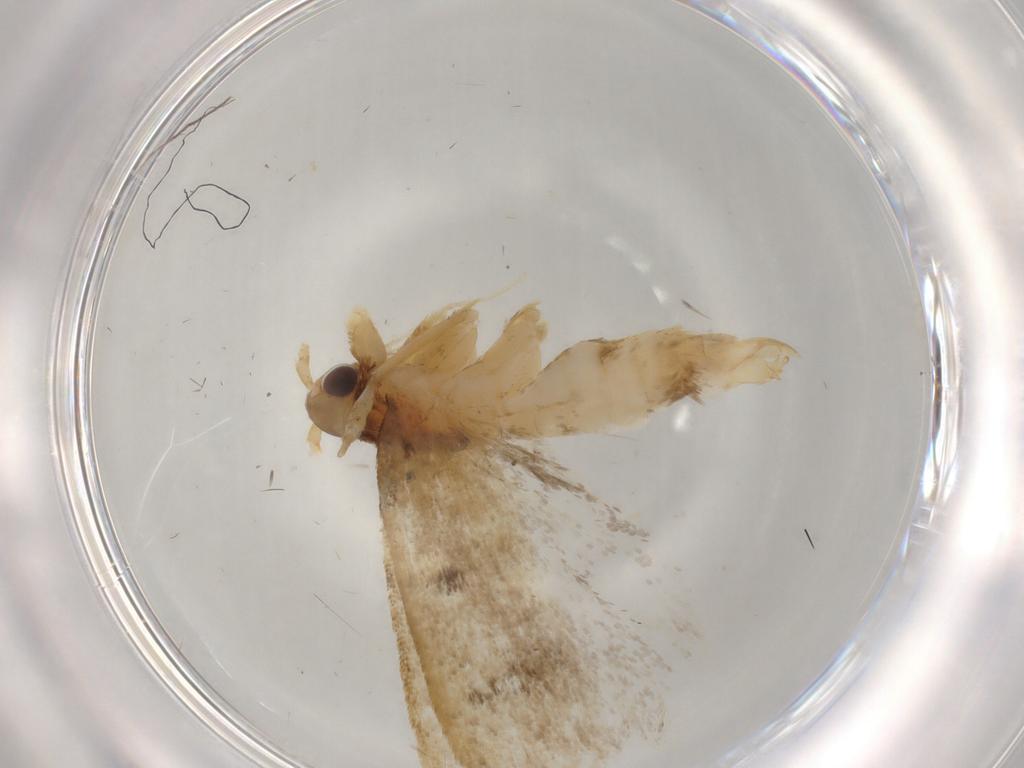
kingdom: Animalia
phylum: Arthropoda
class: Insecta
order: Lepidoptera
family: Lecithoceridae
